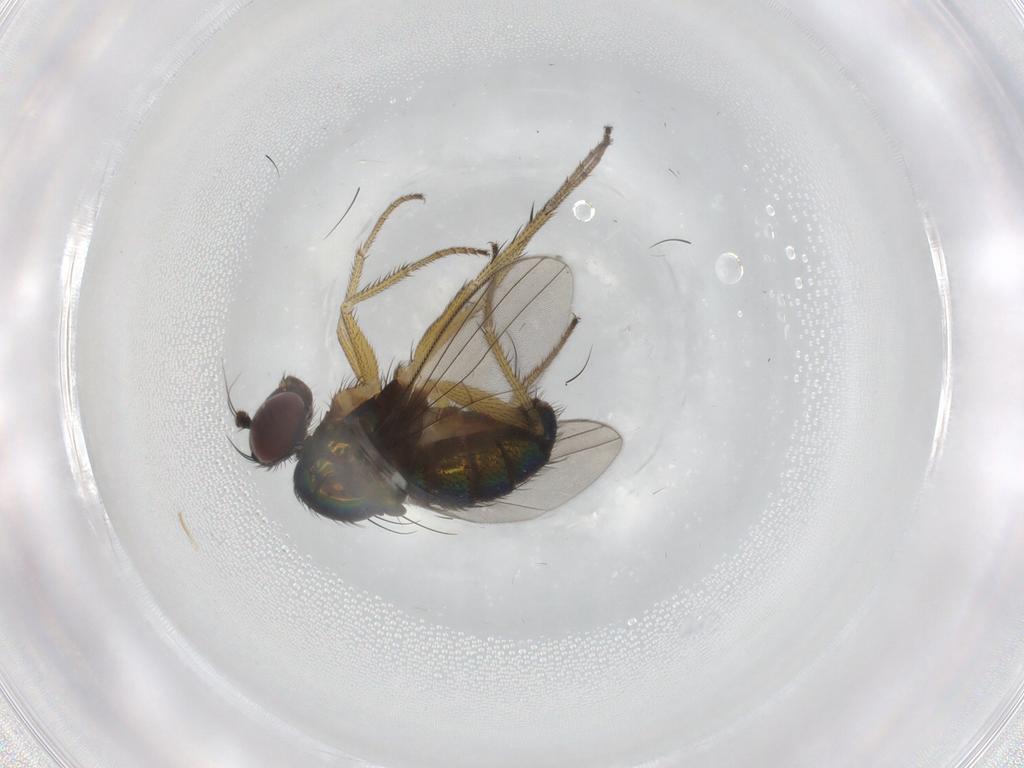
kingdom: Animalia
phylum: Arthropoda
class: Insecta
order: Diptera
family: Dolichopodidae
